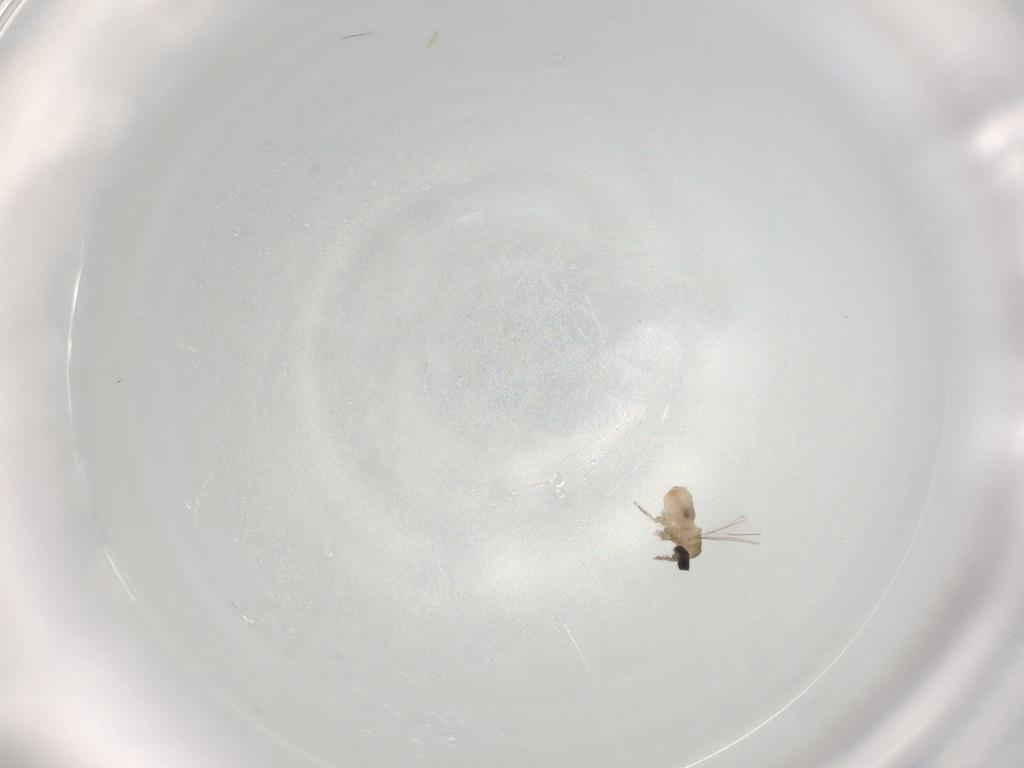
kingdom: Animalia
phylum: Arthropoda
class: Insecta
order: Diptera
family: Cecidomyiidae
